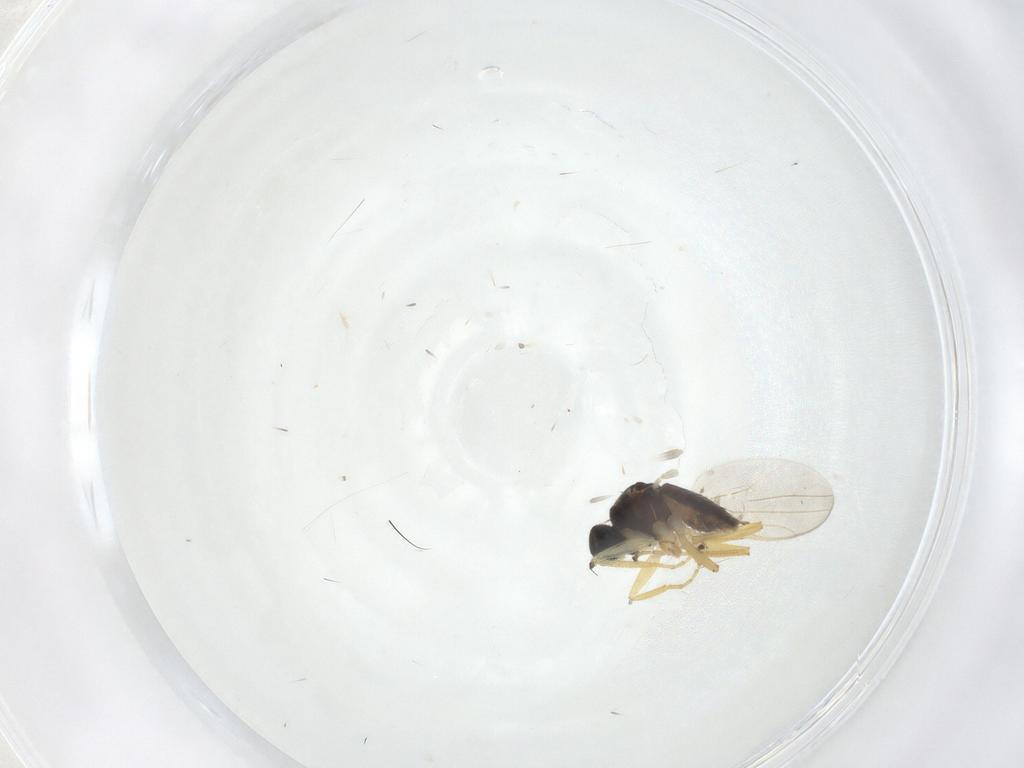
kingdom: Animalia
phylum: Arthropoda
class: Insecta
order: Diptera
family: Hybotidae
